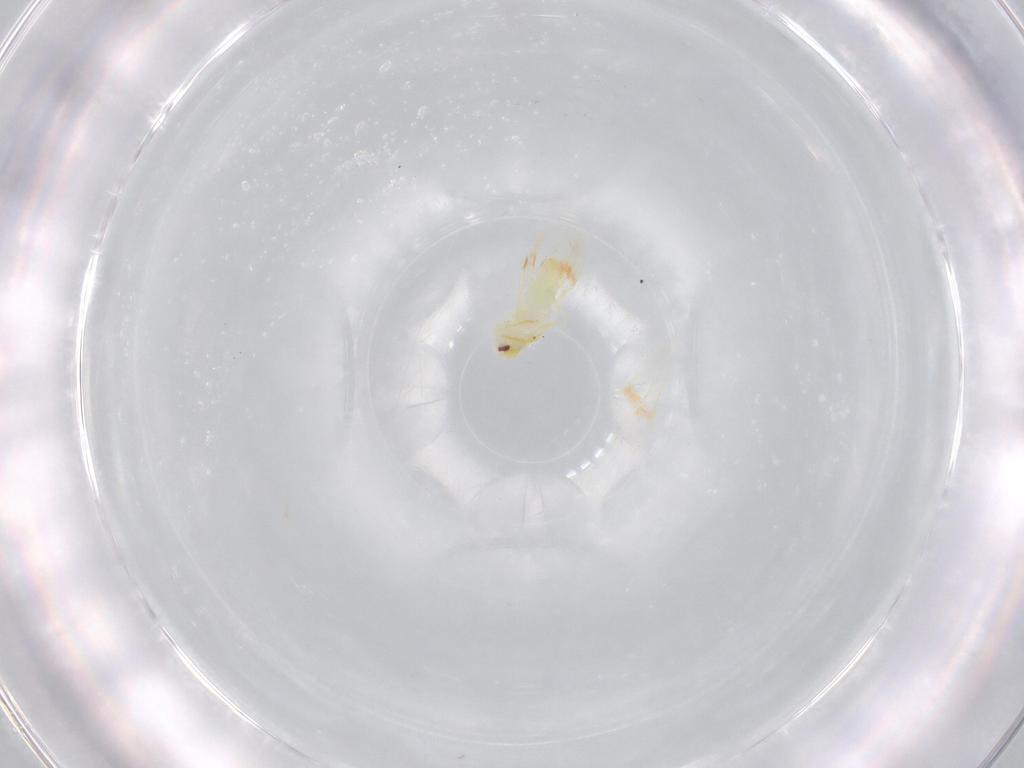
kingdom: Animalia
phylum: Arthropoda
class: Insecta
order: Hemiptera
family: Aleyrodidae
